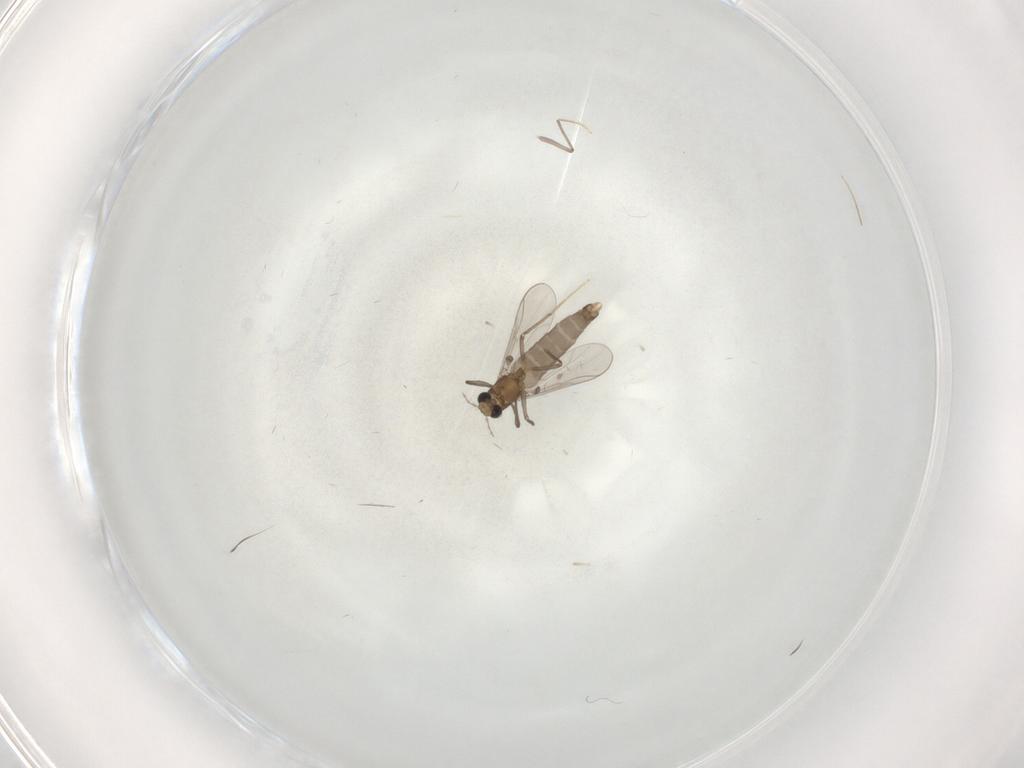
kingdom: Animalia
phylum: Arthropoda
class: Insecta
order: Diptera
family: Chironomidae
